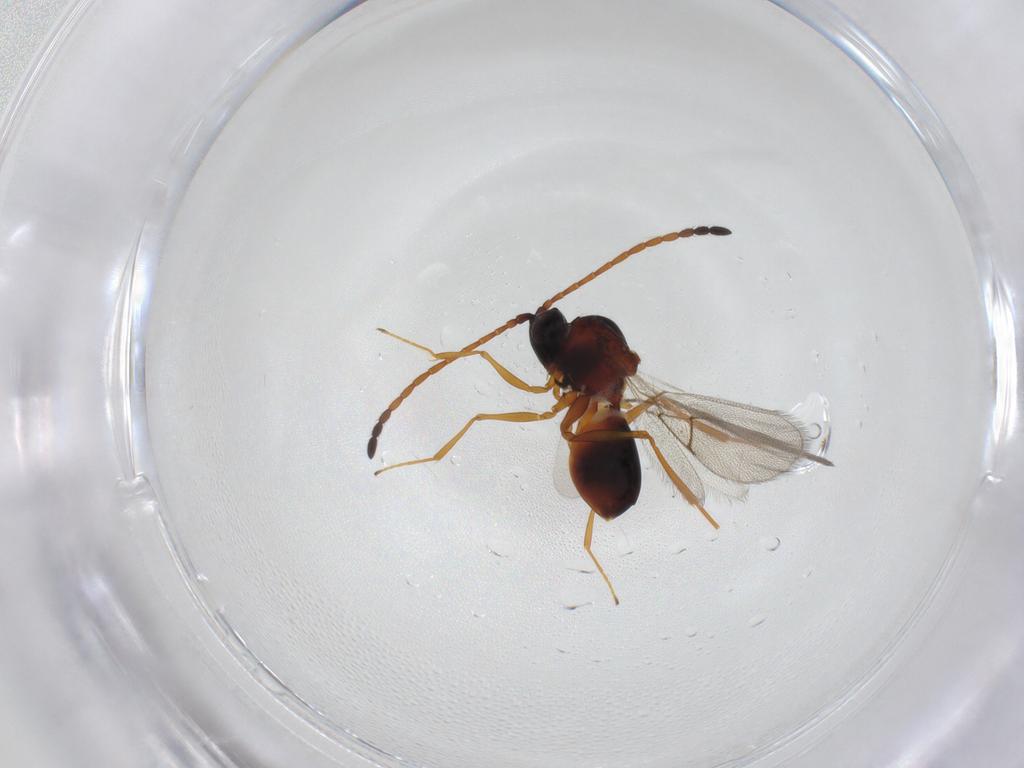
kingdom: Animalia
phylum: Arthropoda
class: Insecta
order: Hymenoptera
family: Figitidae
